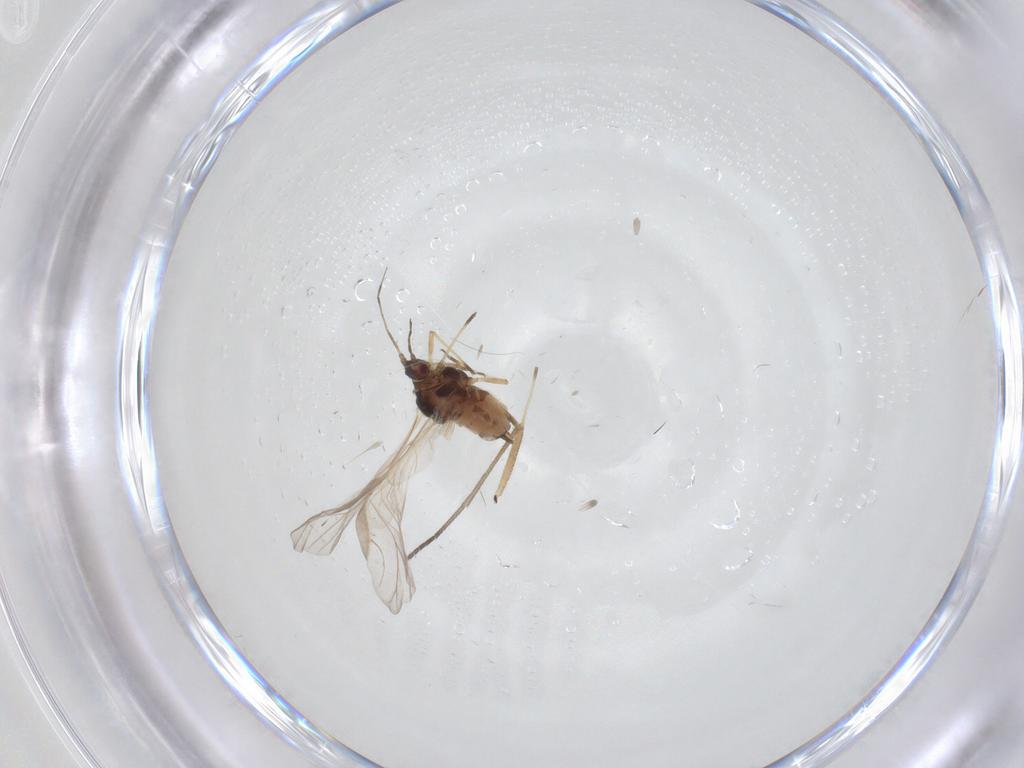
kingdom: Animalia
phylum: Arthropoda
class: Insecta
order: Hemiptera
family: Aphididae
